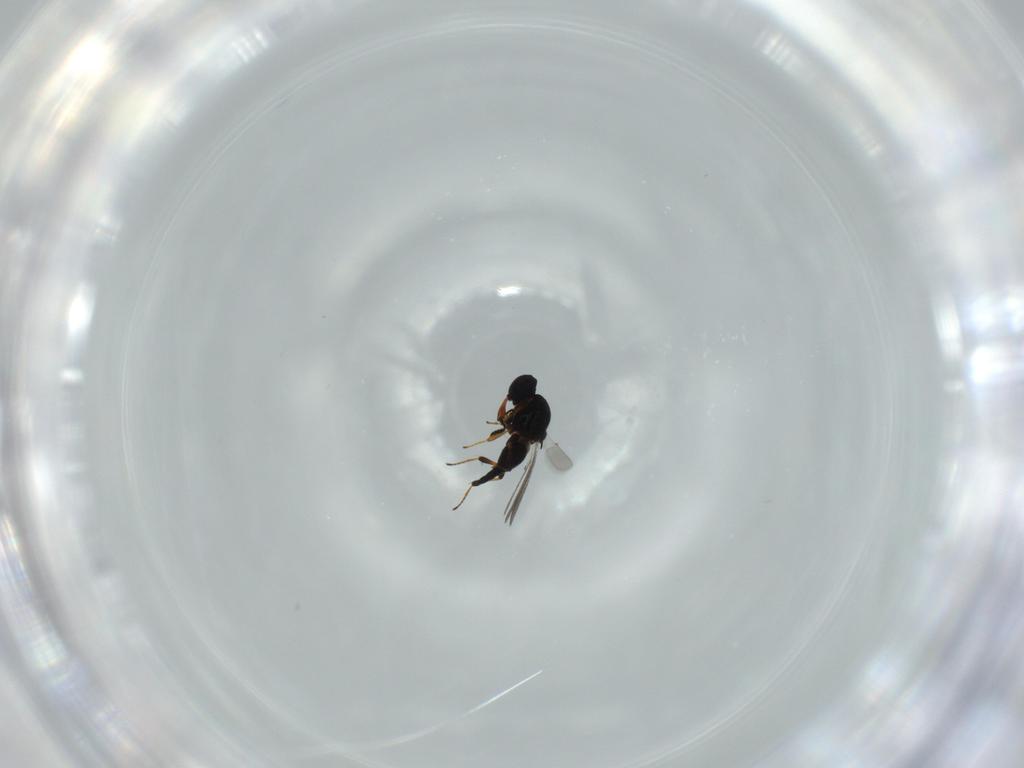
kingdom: Animalia
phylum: Arthropoda
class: Insecta
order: Hymenoptera
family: Platygastridae
